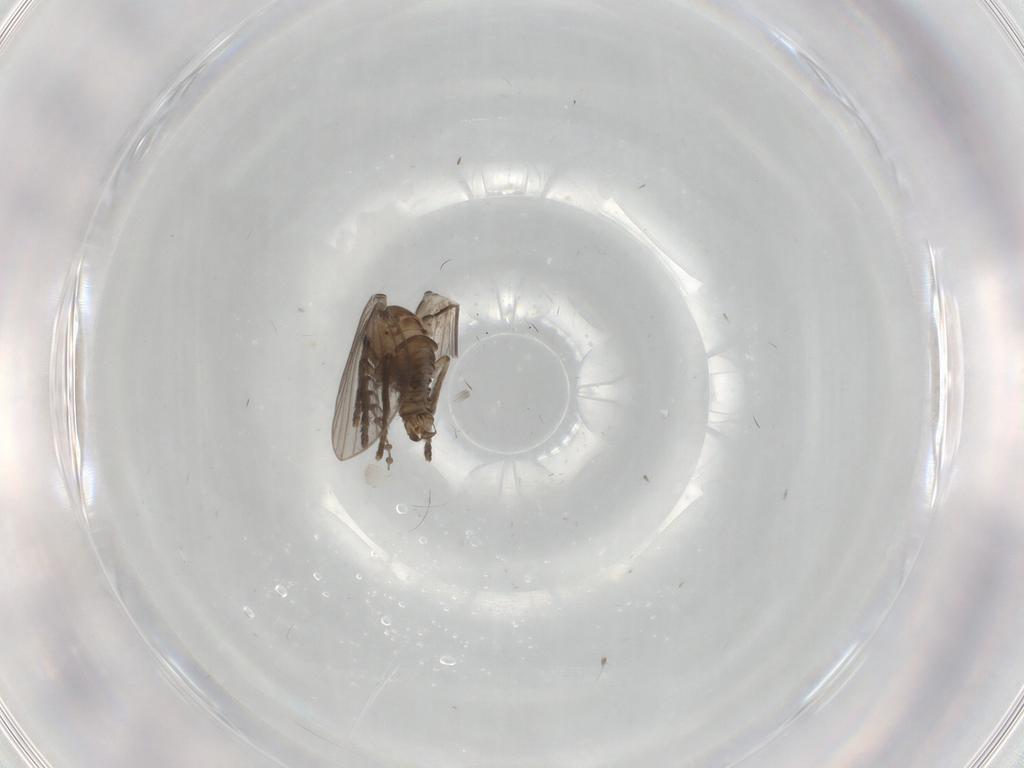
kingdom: Animalia
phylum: Arthropoda
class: Insecta
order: Diptera
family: Psychodidae
